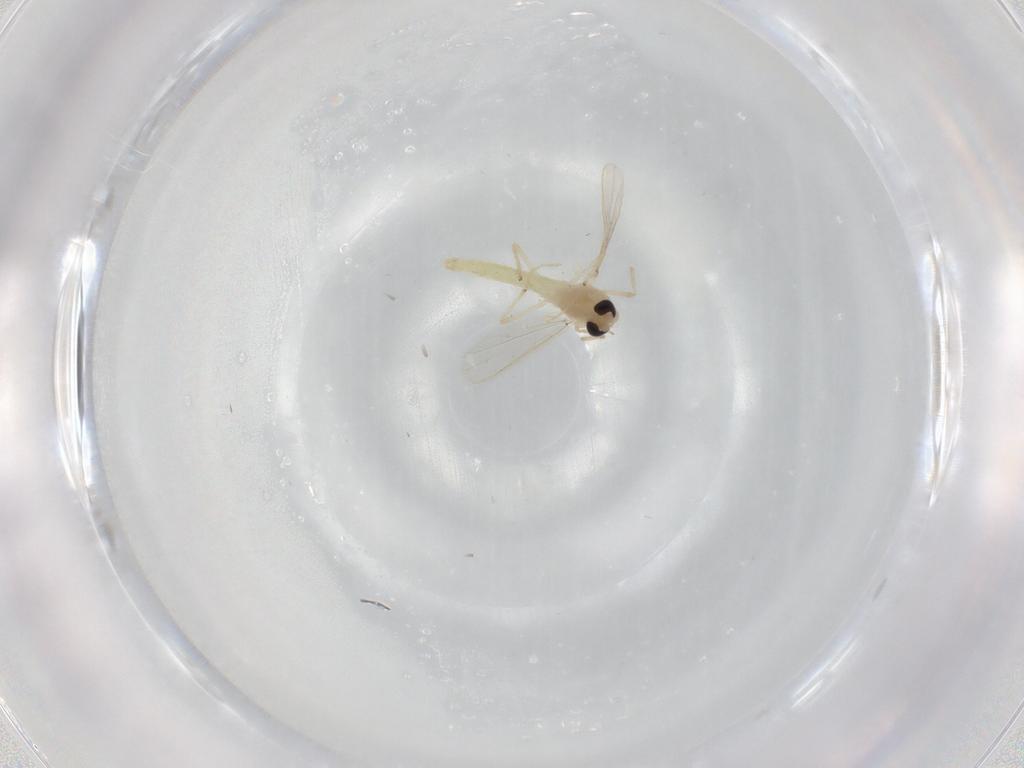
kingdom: Animalia
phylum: Arthropoda
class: Insecta
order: Diptera
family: Chironomidae
